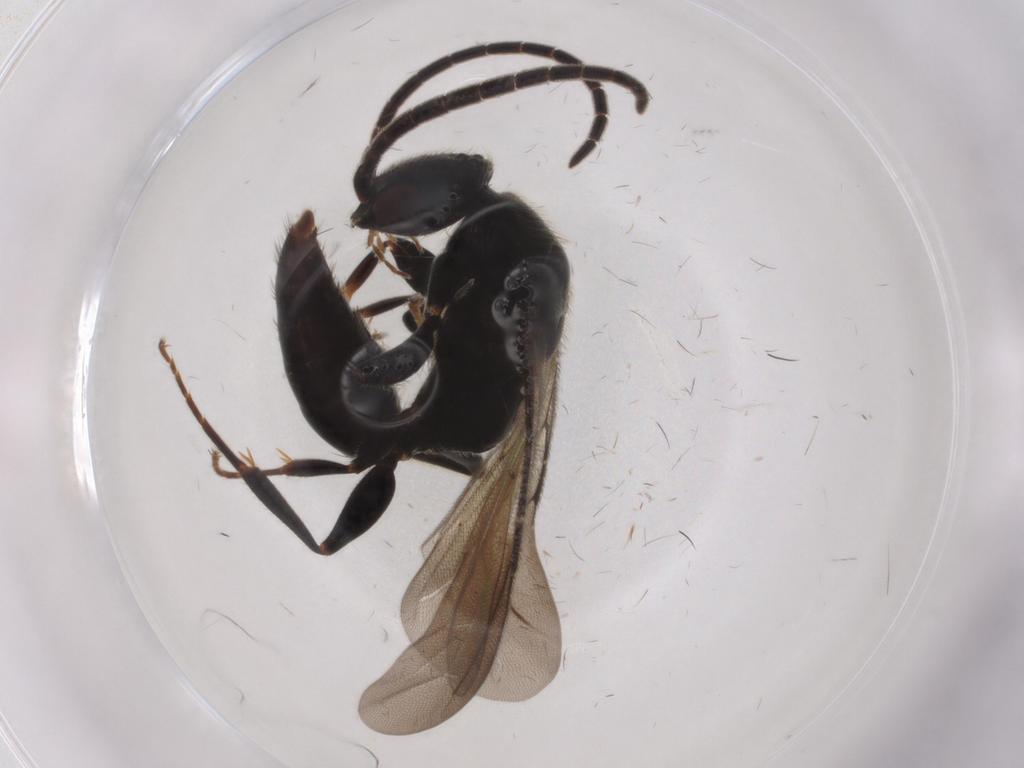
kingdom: Animalia
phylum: Arthropoda
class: Insecta
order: Hymenoptera
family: Bethylidae
